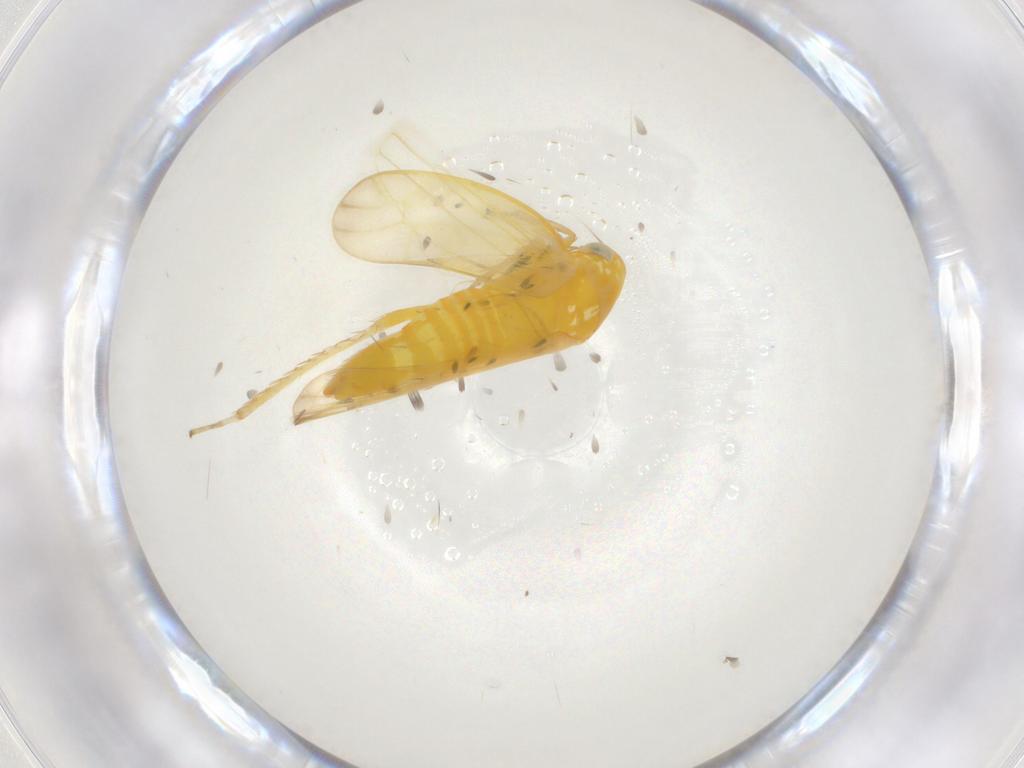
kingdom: Animalia
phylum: Arthropoda
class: Insecta
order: Hemiptera
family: Cicadellidae
